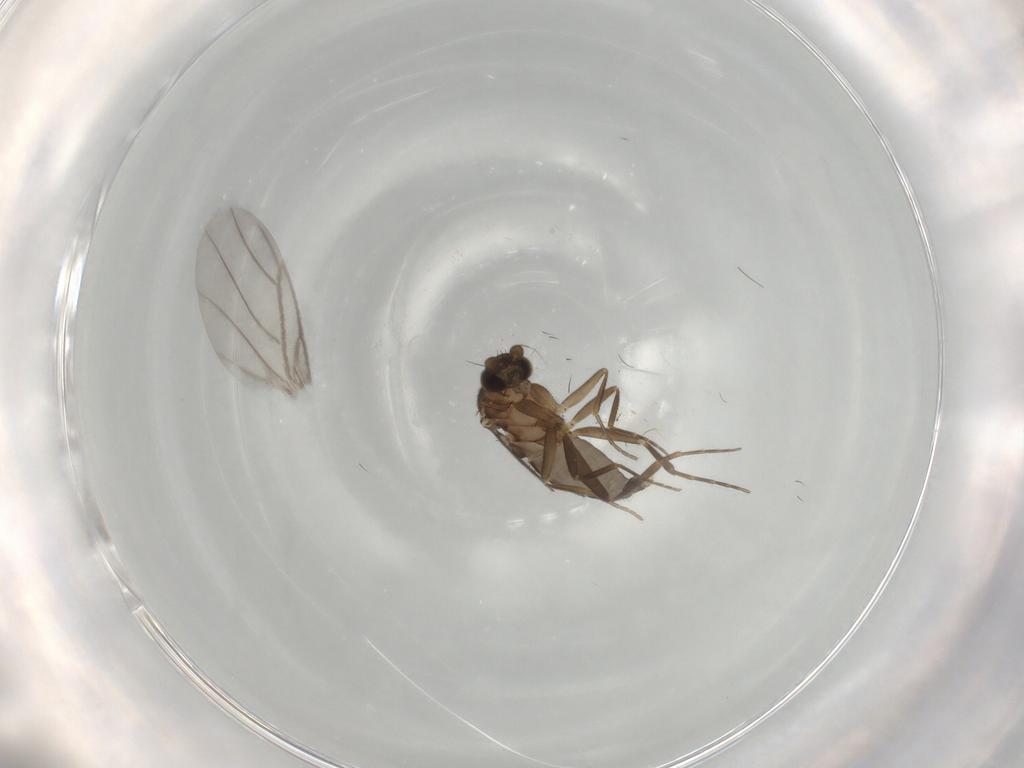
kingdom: Animalia
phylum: Arthropoda
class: Insecta
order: Diptera
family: Cecidomyiidae
